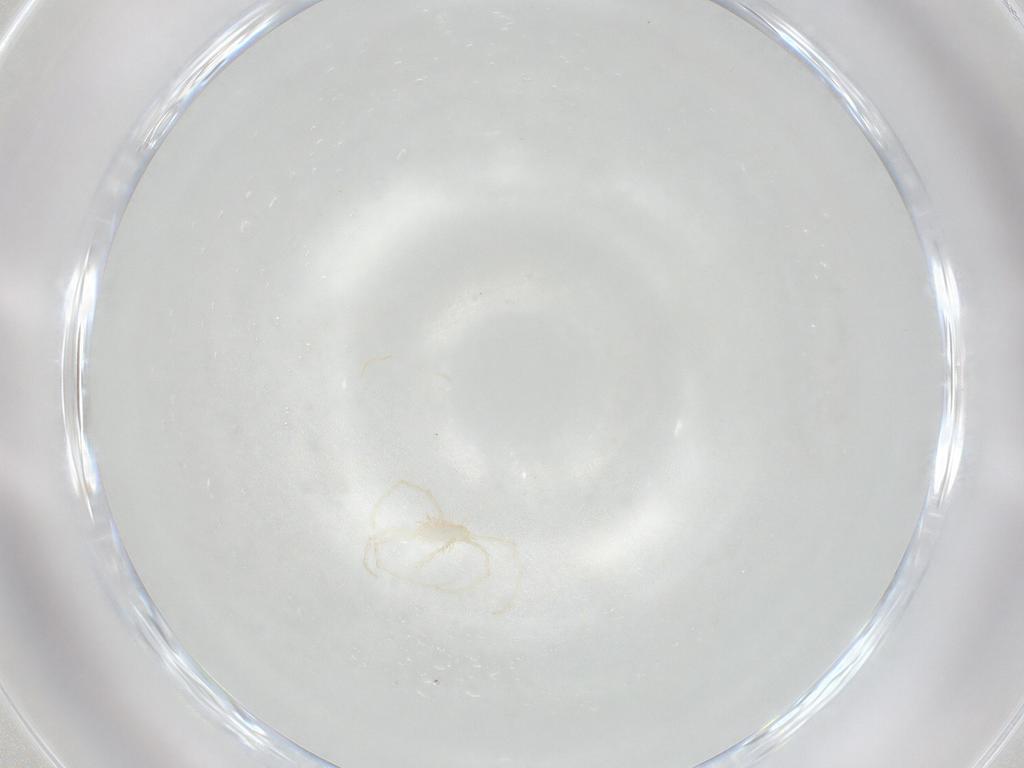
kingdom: Animalia
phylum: Arthropoda
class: Arachnida
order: Trombidiformes
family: Erythraeidae
